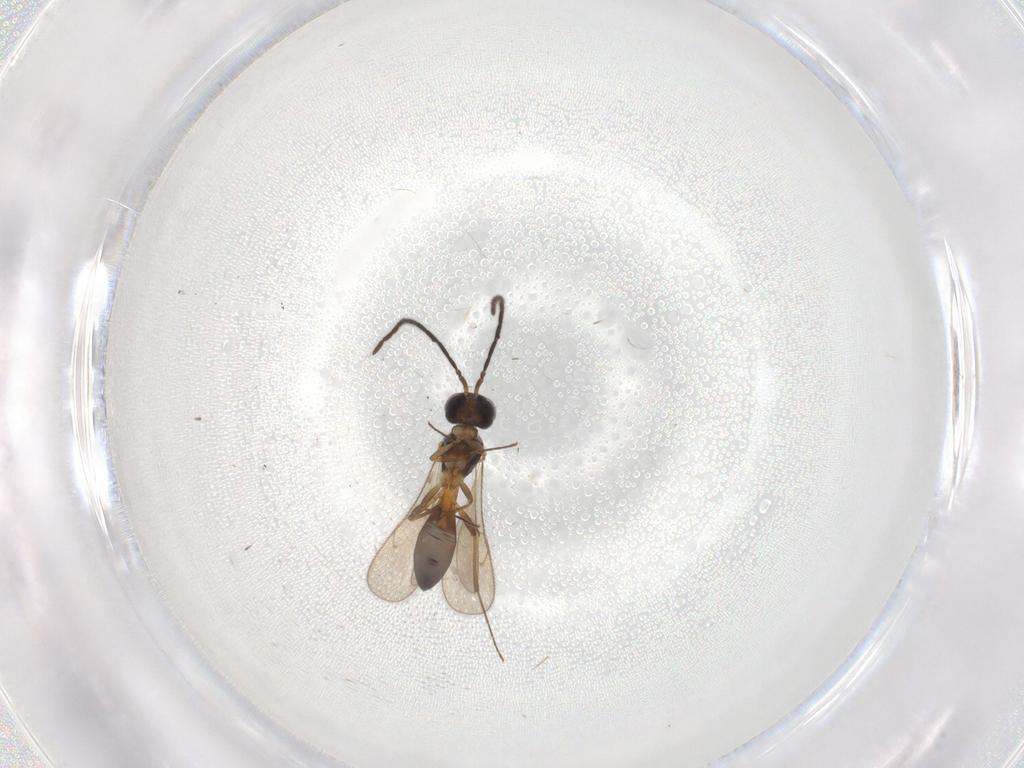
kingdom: Animalia
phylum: Arthropoda
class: Insecta
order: Hymenoptera
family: Scelionidae
